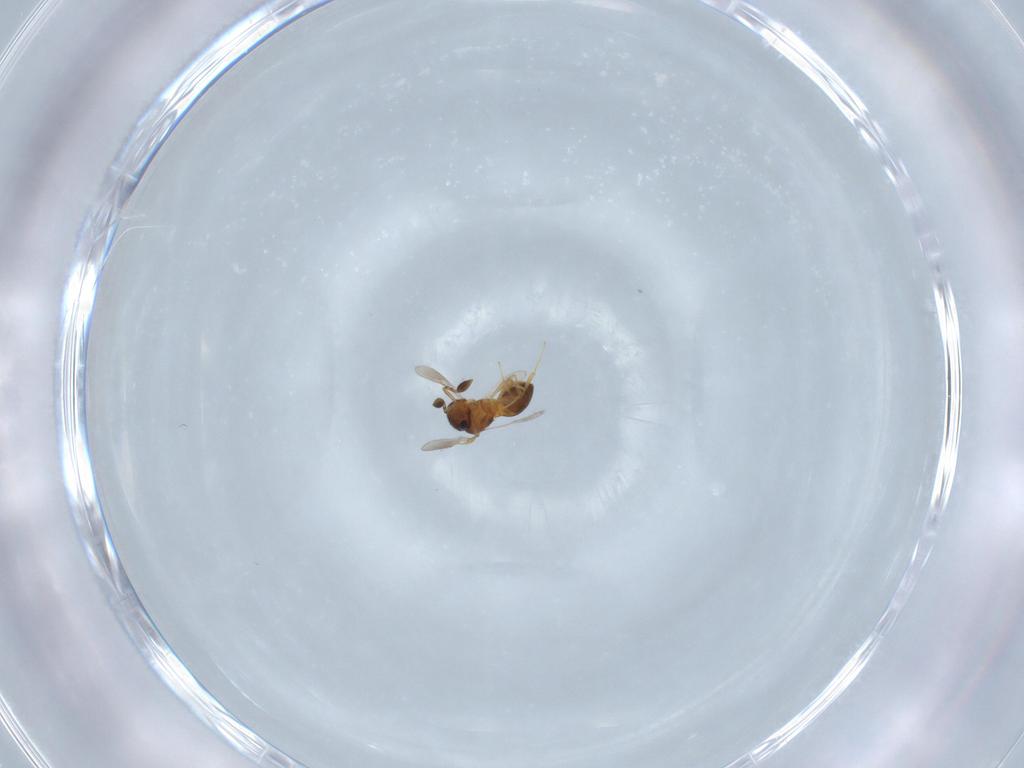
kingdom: Animalia
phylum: Arthropoda
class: Insecta
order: Hymenoptera
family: Scelionidae
